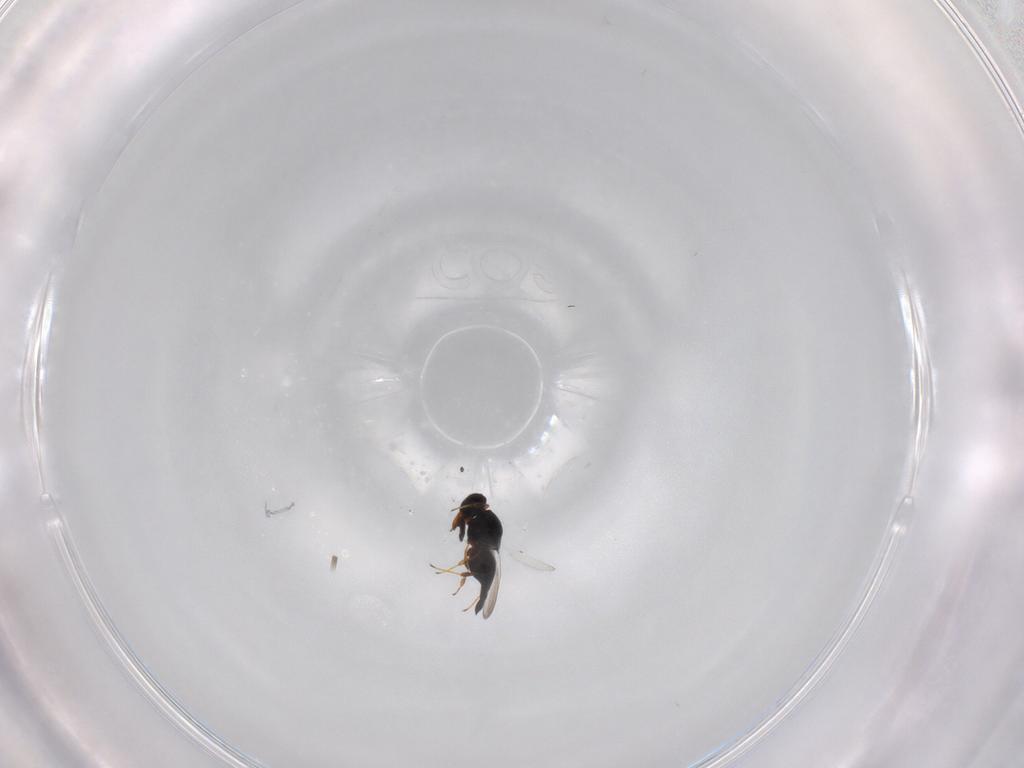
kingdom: Animalia
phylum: Arthropoda
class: Insecta
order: Hymenoptera
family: Platygastridae
